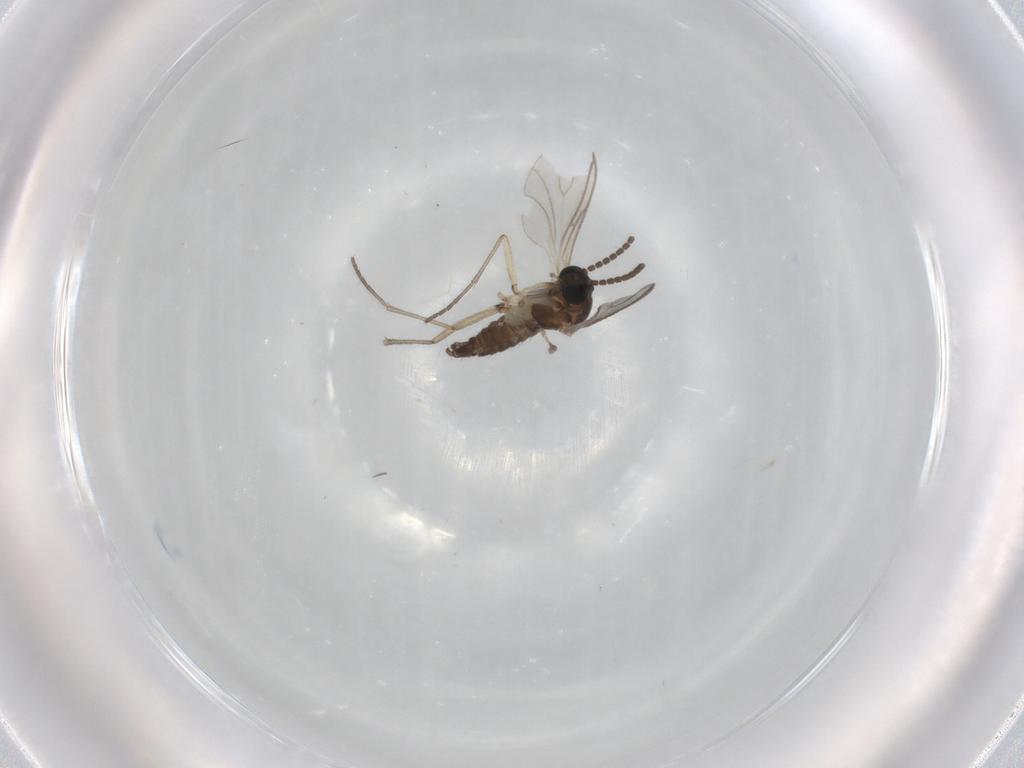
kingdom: Animalia
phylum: Arthropoda
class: Insecta
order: Diptera
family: Sciaridae
